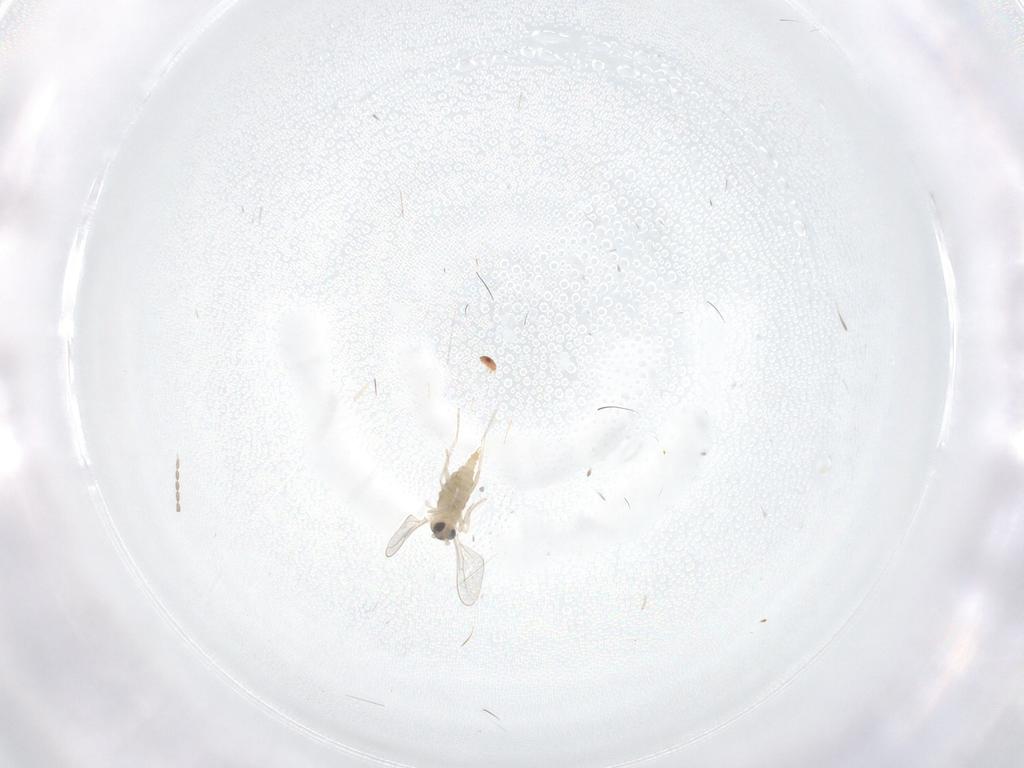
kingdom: Animalia
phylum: Arthropoda
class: Insecta
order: Diptera
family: Cecidomyiidae
